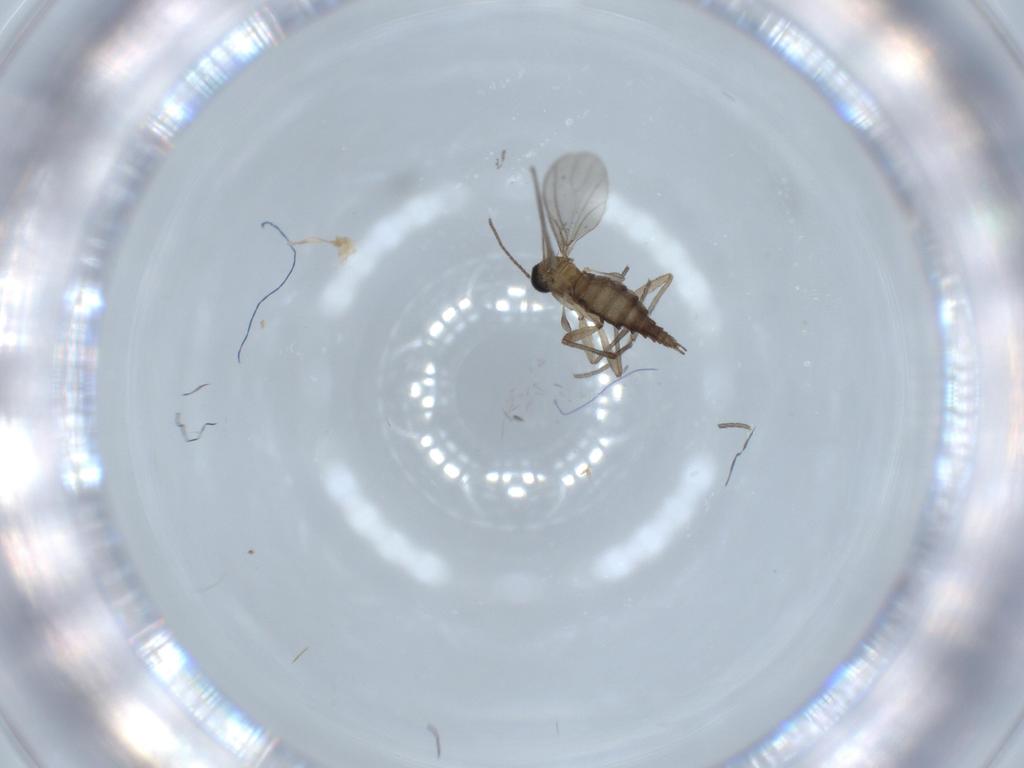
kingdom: Animalia
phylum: Arthropoda
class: Insecta
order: Diptera
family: Sciaridae
